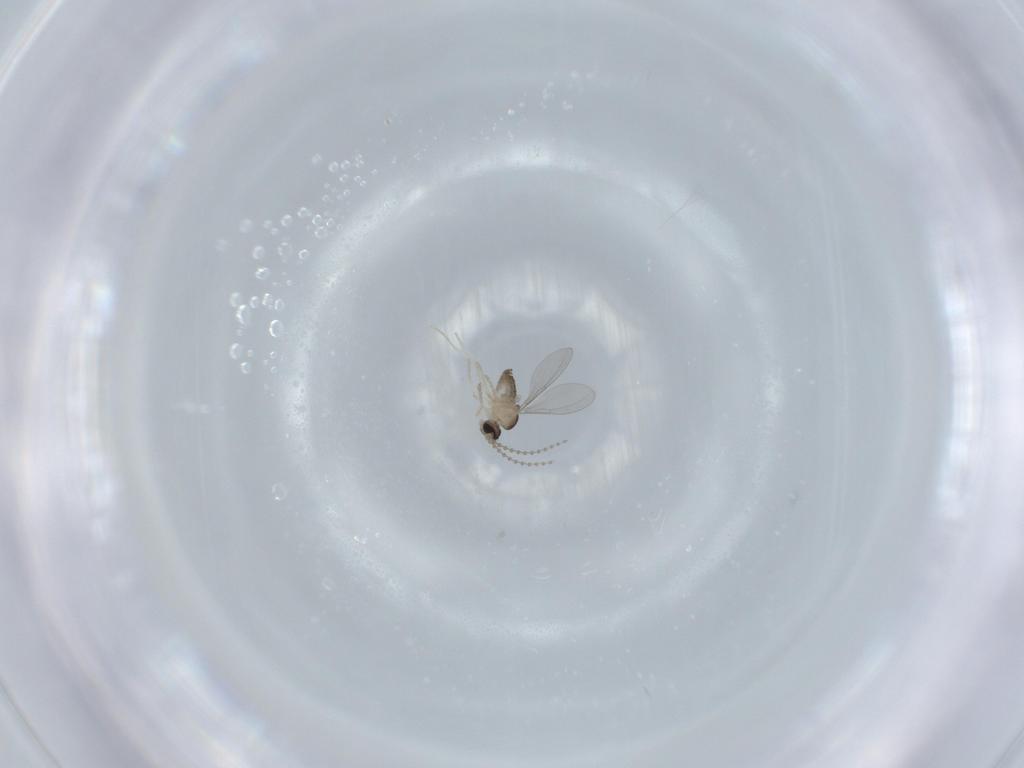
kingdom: Animalia
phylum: Arthropoda
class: Insecta
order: Diptera
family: Cecidomyiidae
